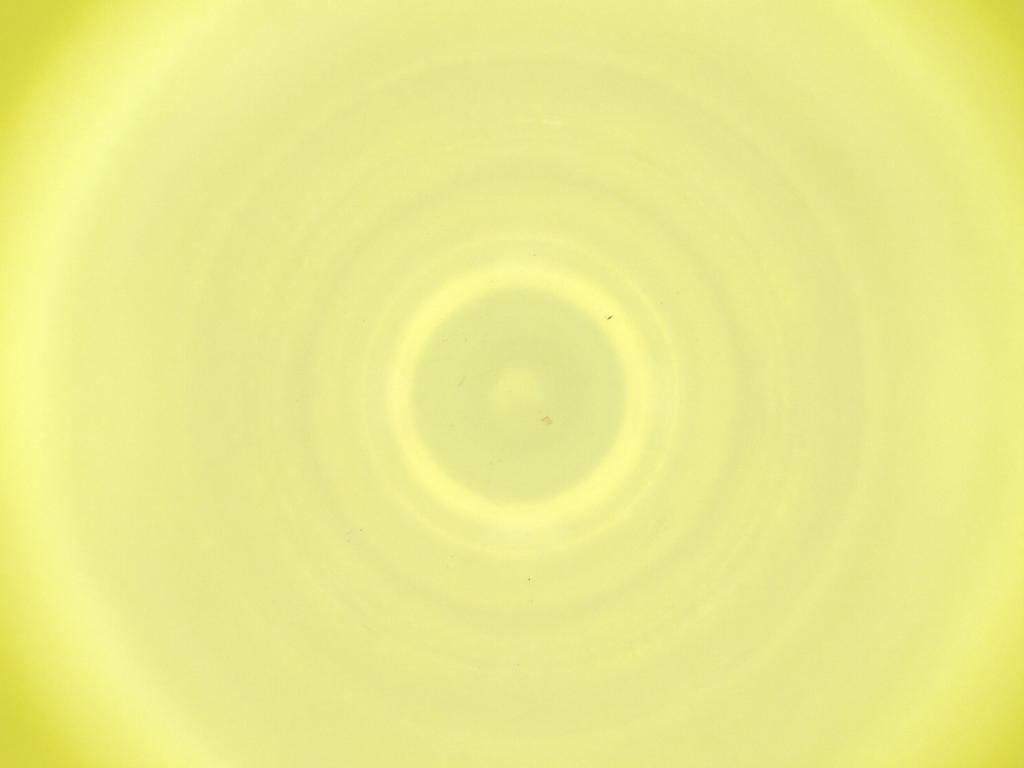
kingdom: Animalia
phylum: Arthropoda
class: Insecta
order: Diptera
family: Cecidomyiidae
